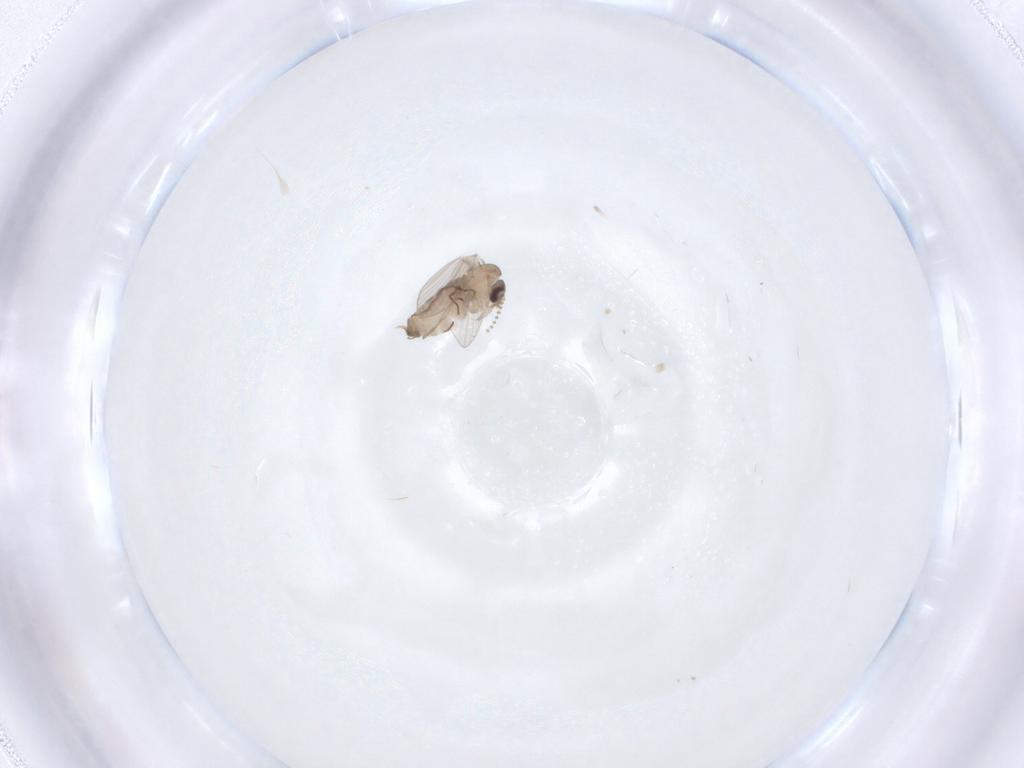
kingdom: Animalia
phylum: Arthropoda
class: Insecta
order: Diptera
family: Psychodidae
